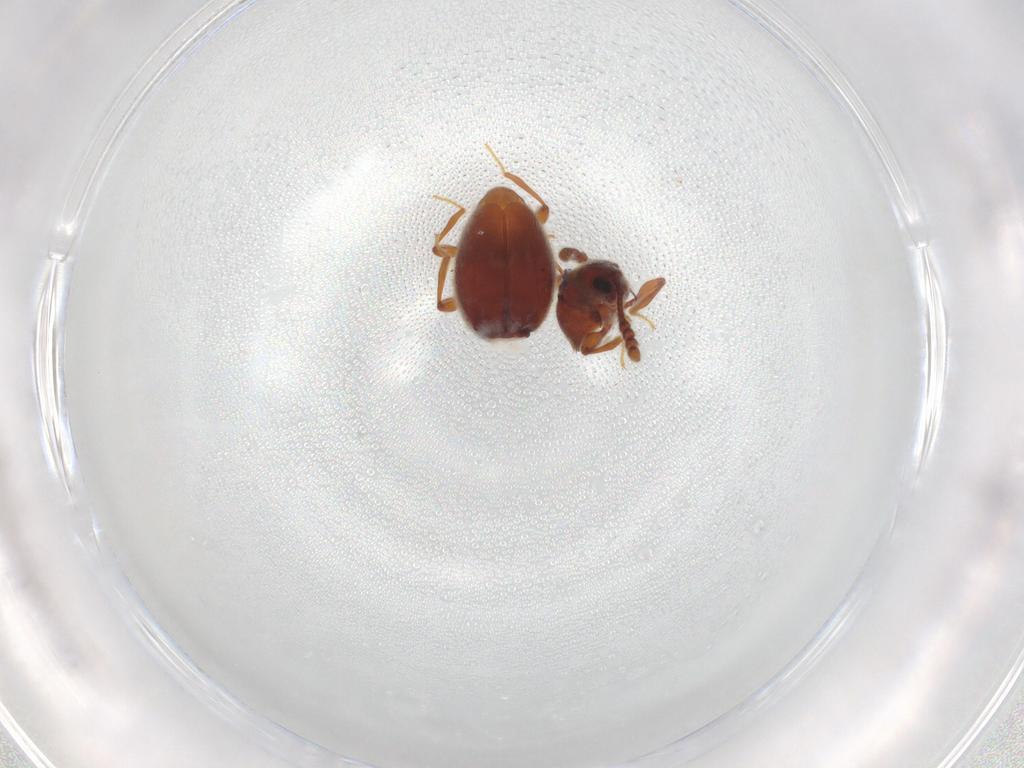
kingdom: Animalia
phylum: Arthropoda
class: Insecta
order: Coleoptera
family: Staphylinidae
